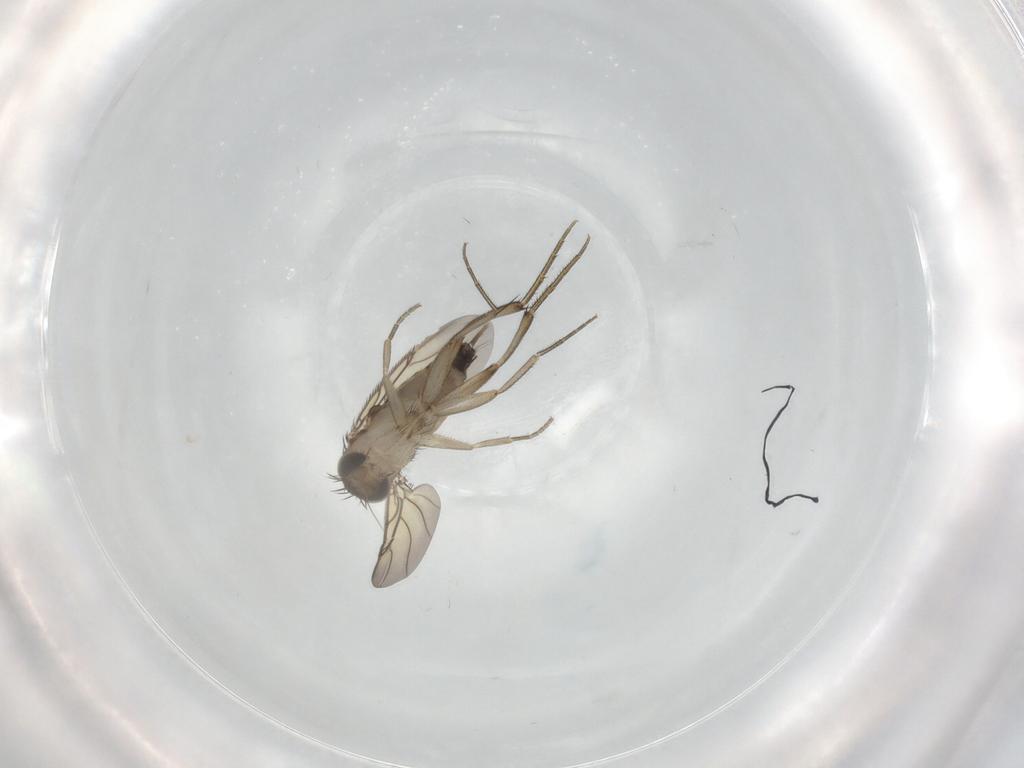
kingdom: Animalia
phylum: Arthropoda
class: Insecta
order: Diptera
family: Phoridae
